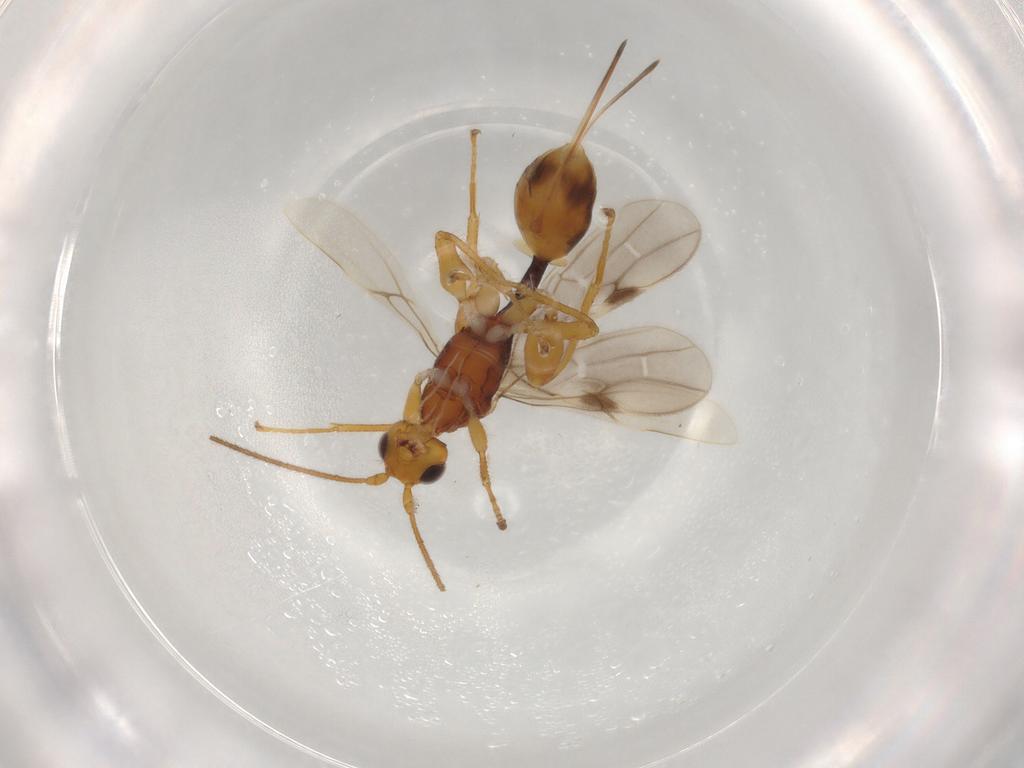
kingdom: Animalia
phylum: Arthropoda
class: Insecta
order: Hymenoptera
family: Braconidae
